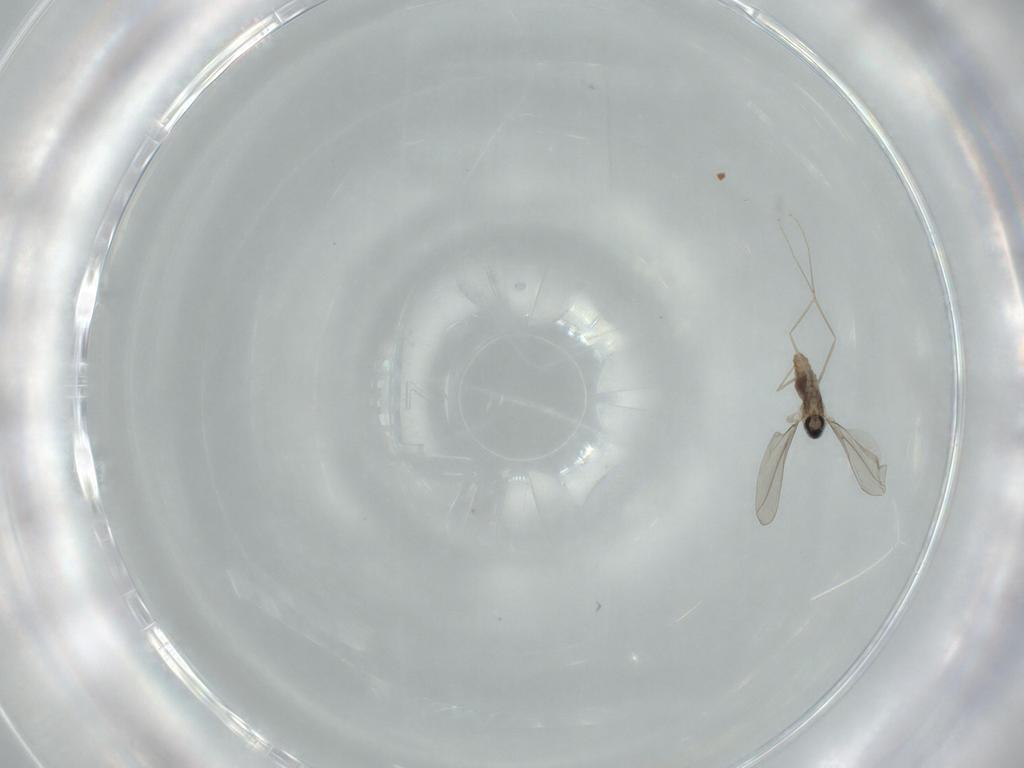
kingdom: Animalia
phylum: Arthropoda
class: Insecta
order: Diptera
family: Cecidomyiidae
